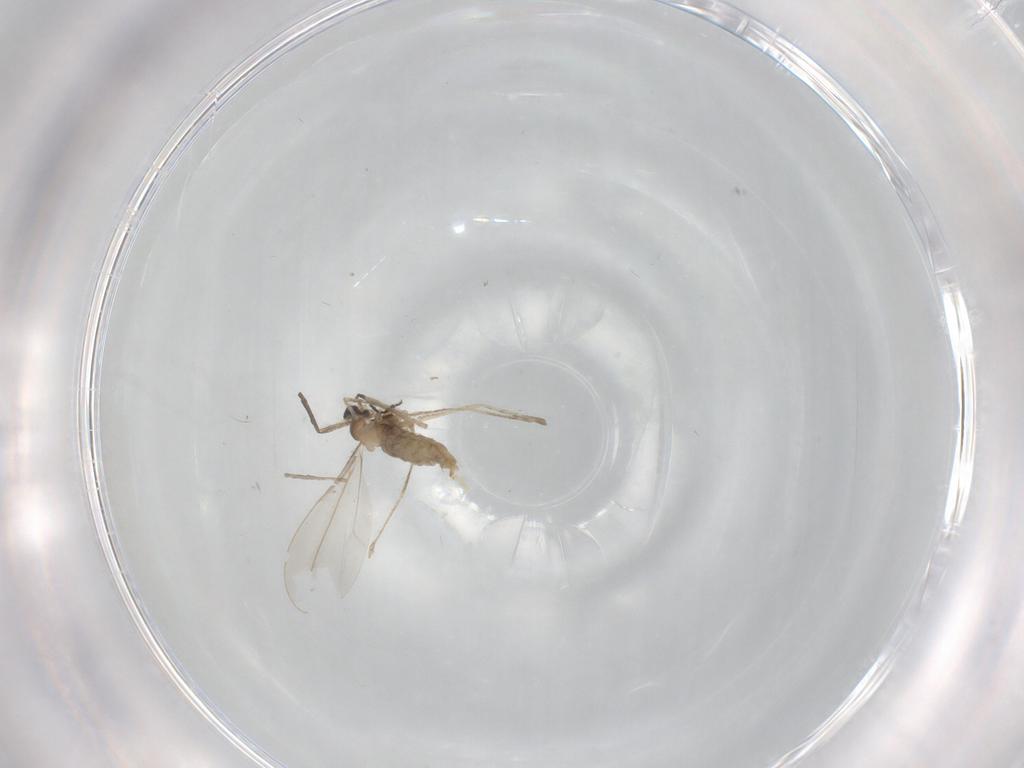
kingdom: Animalia
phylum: Arthropoda
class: Insecta
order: Diptera
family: Cecidomyiidae
